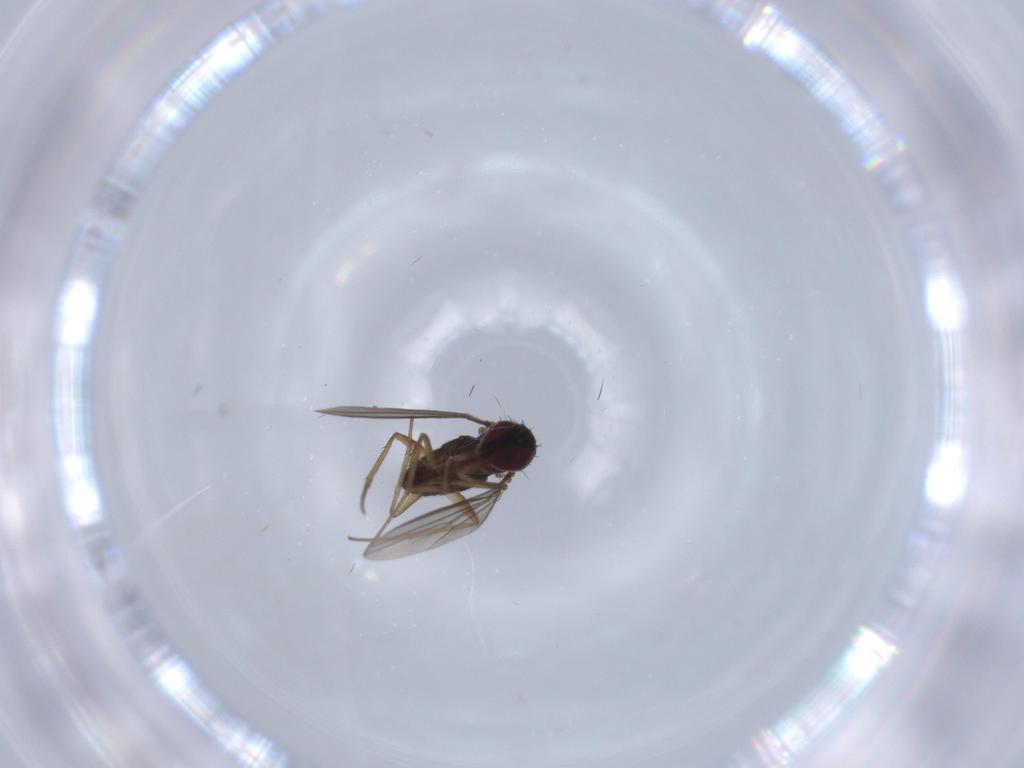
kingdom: Animalia
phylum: Arthropoda
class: Insecta
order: Diptera
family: Dolichopodidae
